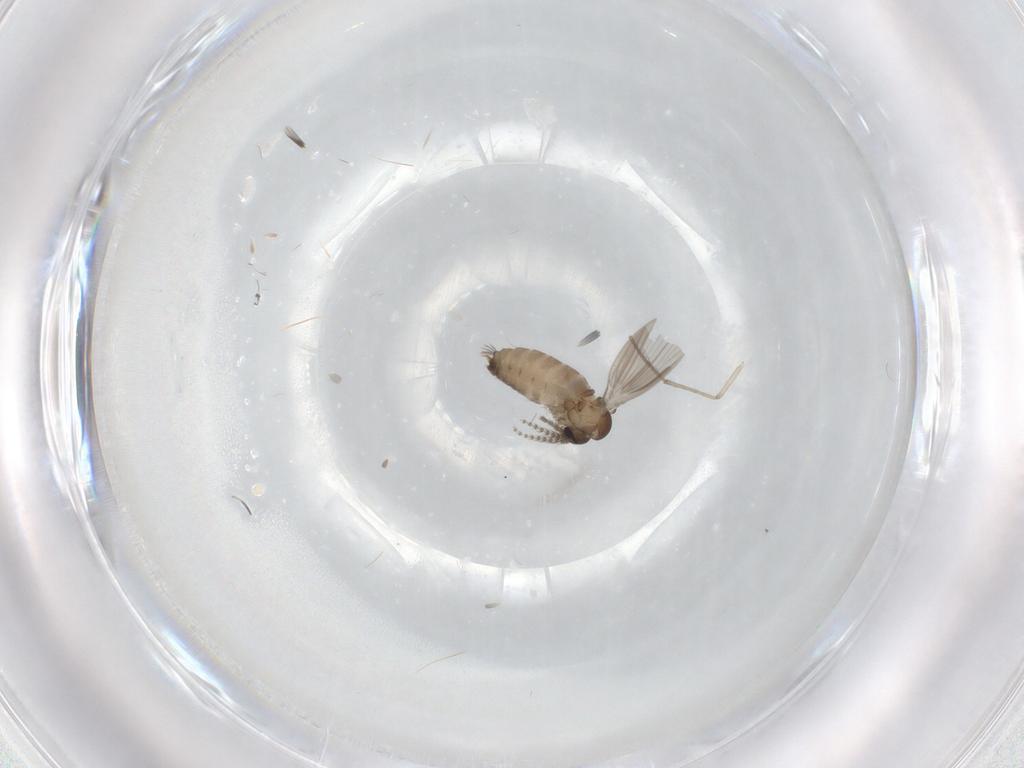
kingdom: Animalia
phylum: Arthropoda
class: Insecta
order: Diptera
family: Psychodidae
